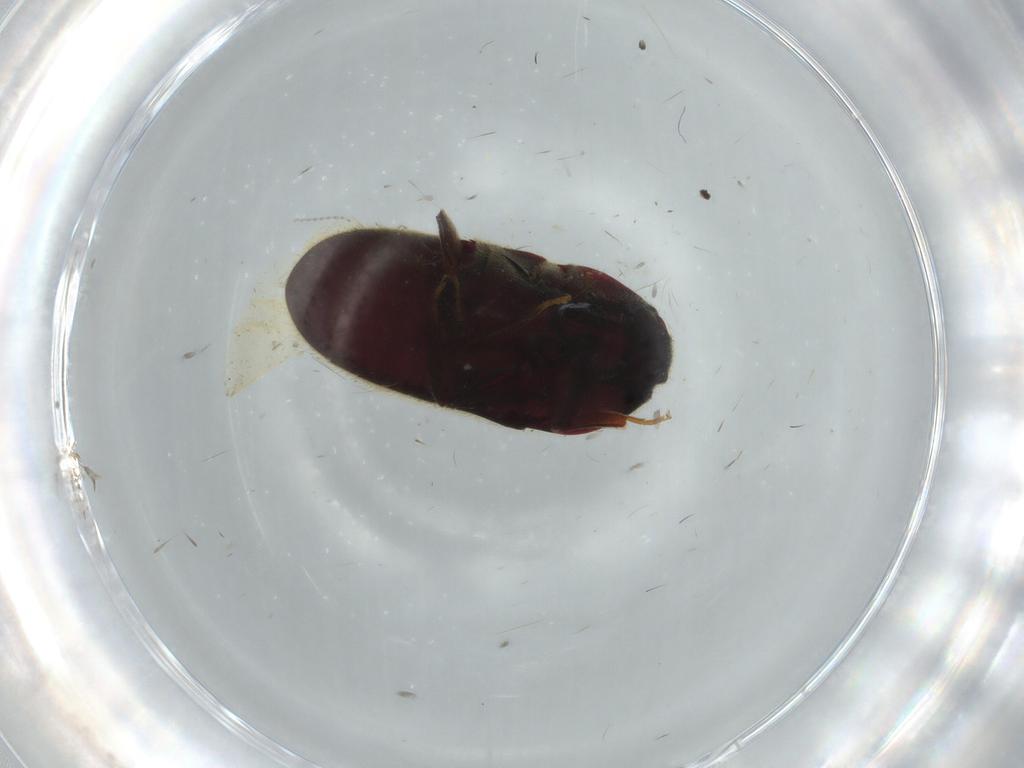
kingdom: Animalia
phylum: Arthropoda
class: Insecta
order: Coleoptera
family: Throscidae
